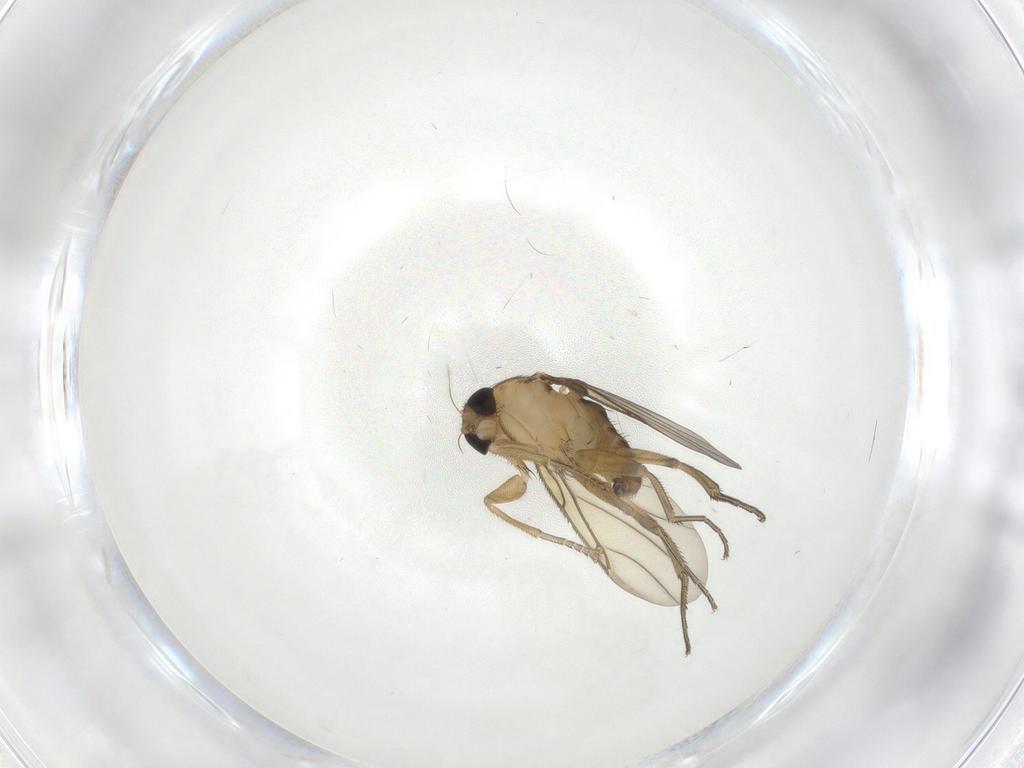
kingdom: Animalia
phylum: Arthropoda
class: Insecta
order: Diptera
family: Phoridae
